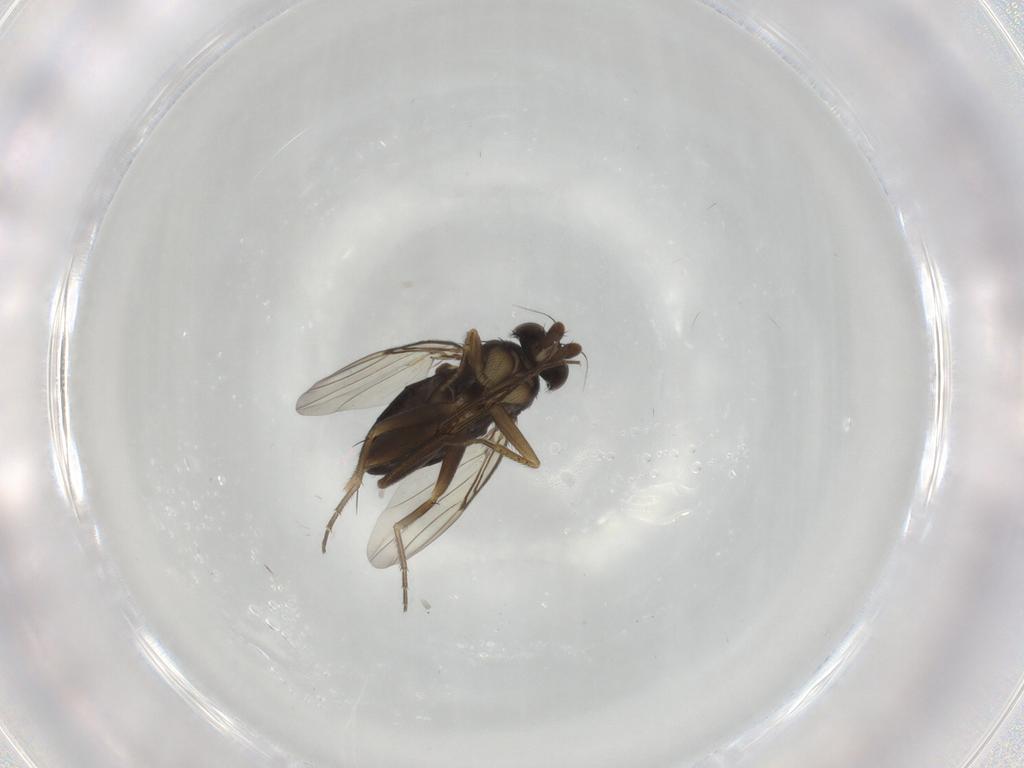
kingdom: Animalia
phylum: Arthropoda
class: Insecta
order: Diptera
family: Phoridae
